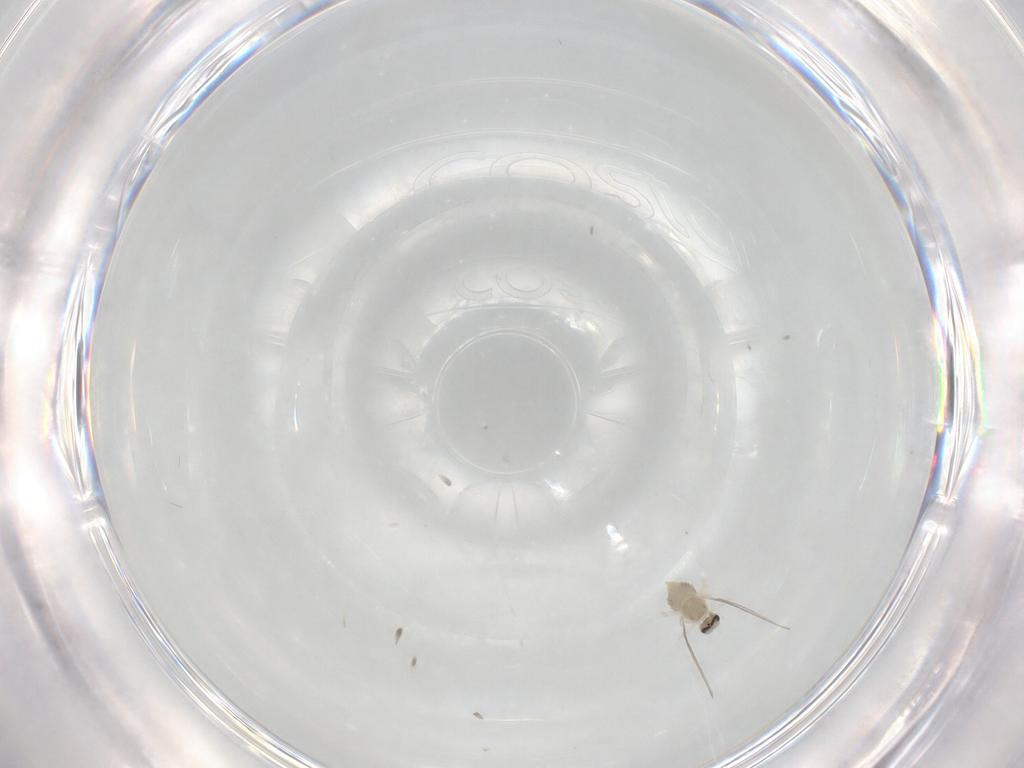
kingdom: Animalia
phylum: Arthropoda
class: Insecta
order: Diptera
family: Cecidomyiidae
